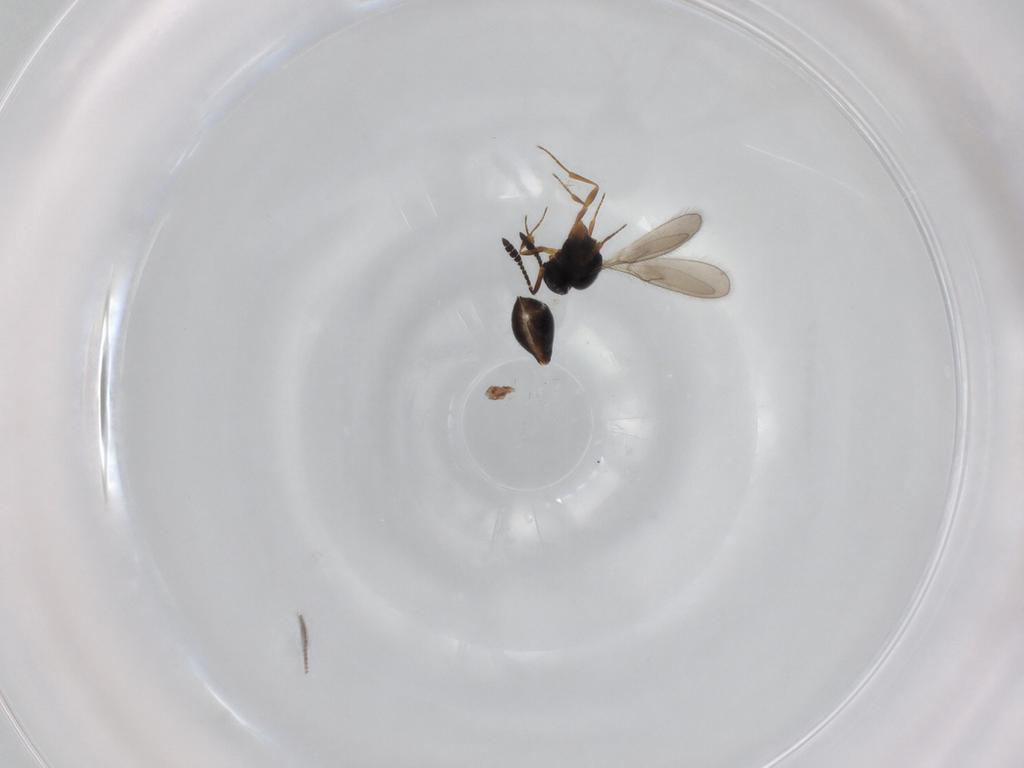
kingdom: Animalia
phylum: Arthropoda
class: Insecta
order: Hymenoptera
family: Scelionidae
